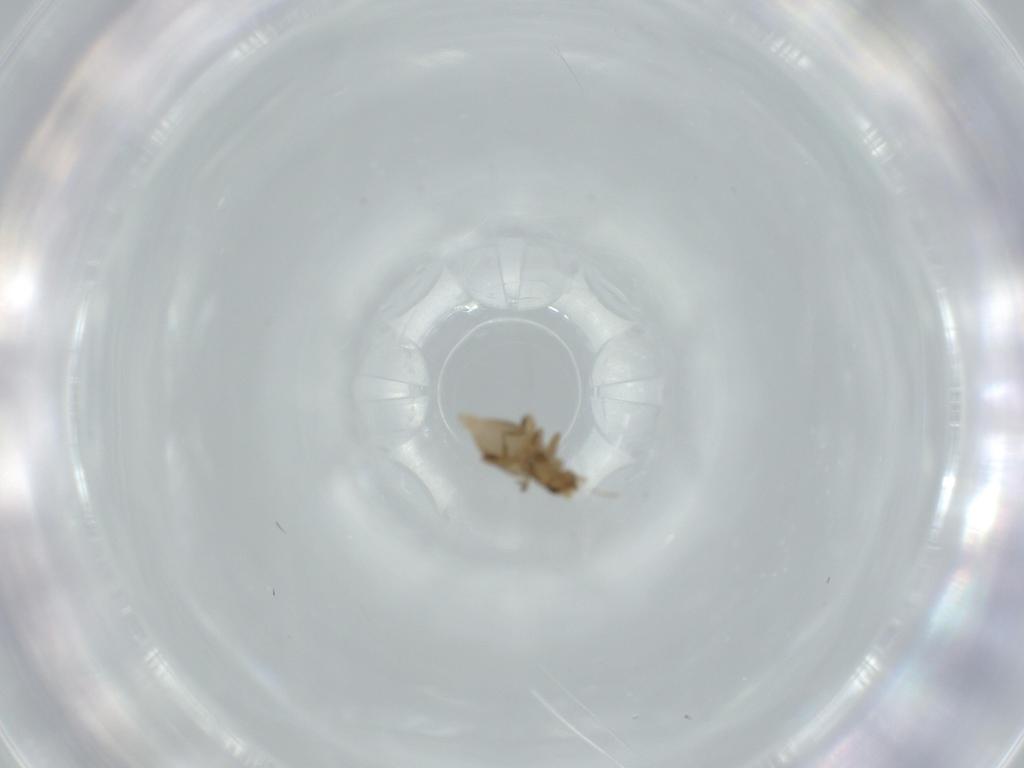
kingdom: Animalia
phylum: Arthropoda
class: Insecta
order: Diptera
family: Phoridae
